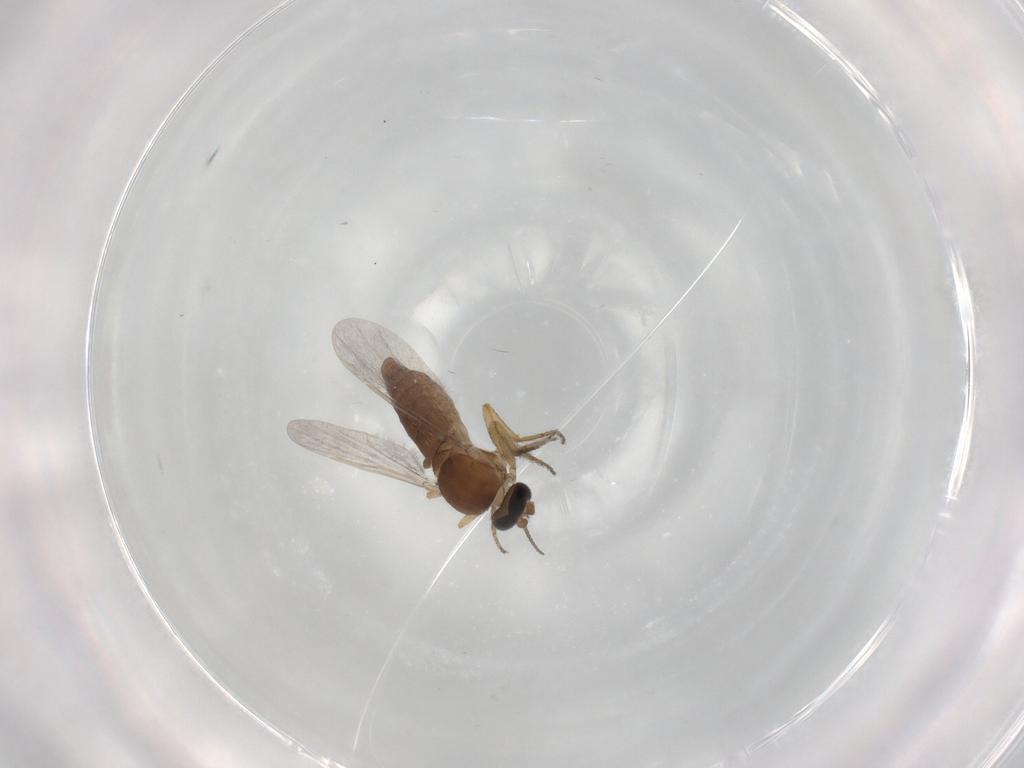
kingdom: Animalia
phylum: Arthropoda
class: Insecta
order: Diptera
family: Ceratopogonidae
